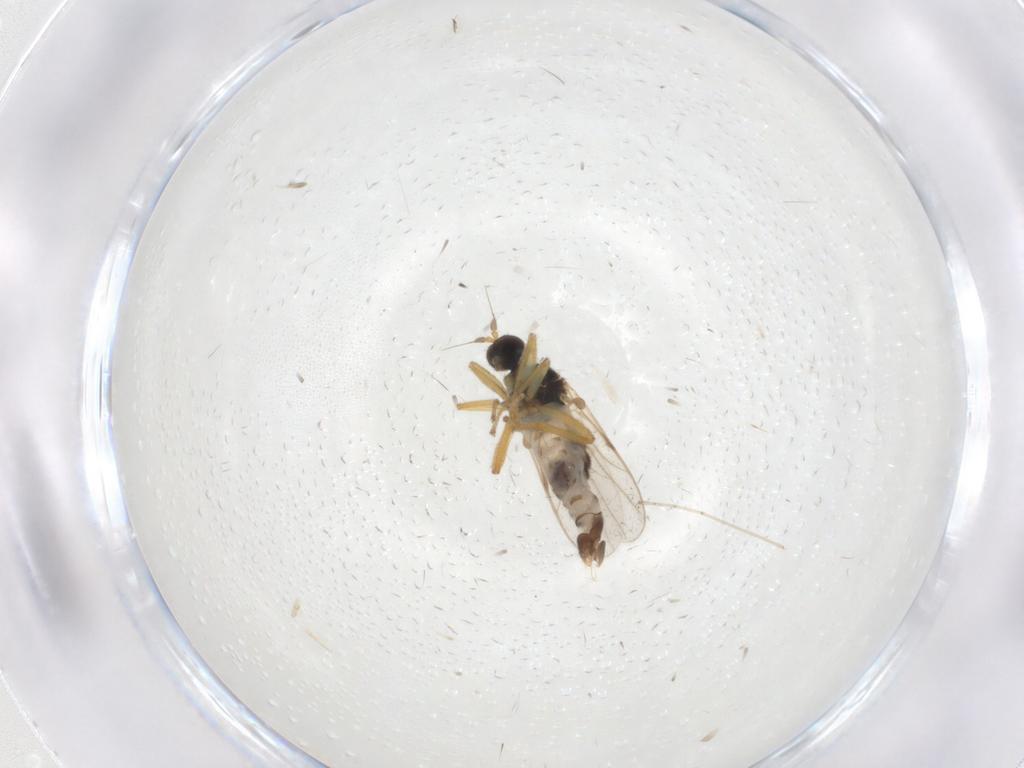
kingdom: Animalia
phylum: Arthropoda
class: Insecta
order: Diptera
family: Hybotidae
